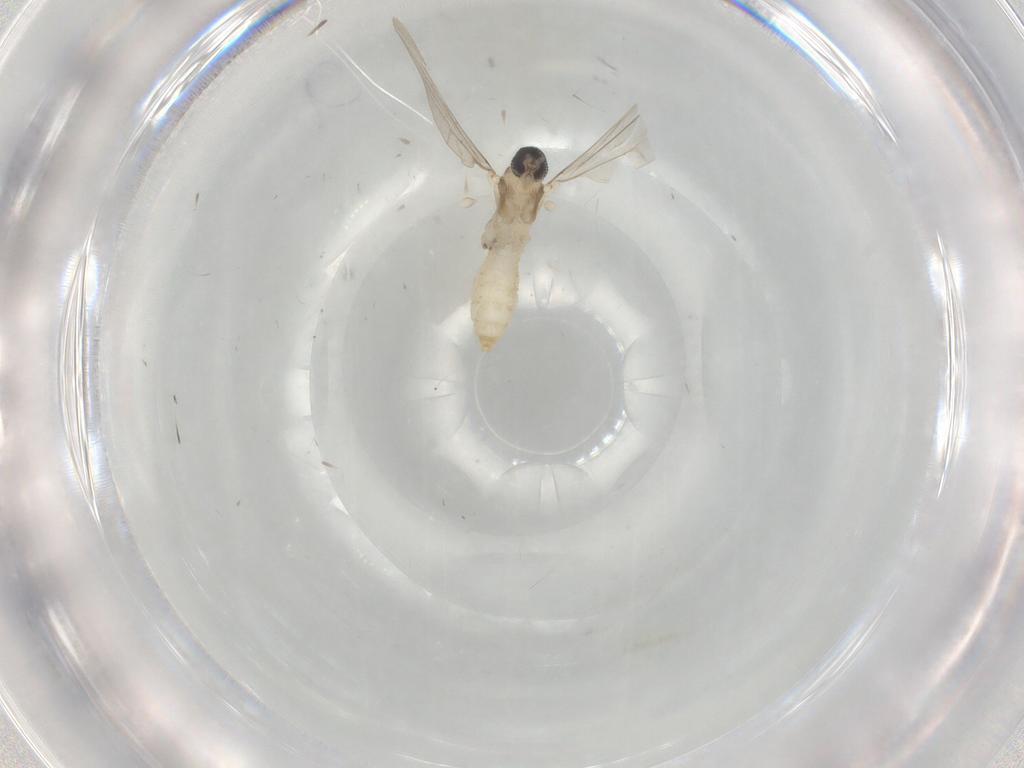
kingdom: Animalia
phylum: Arthropoda
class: Insecta
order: Diptera
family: Cecidomyiidae
